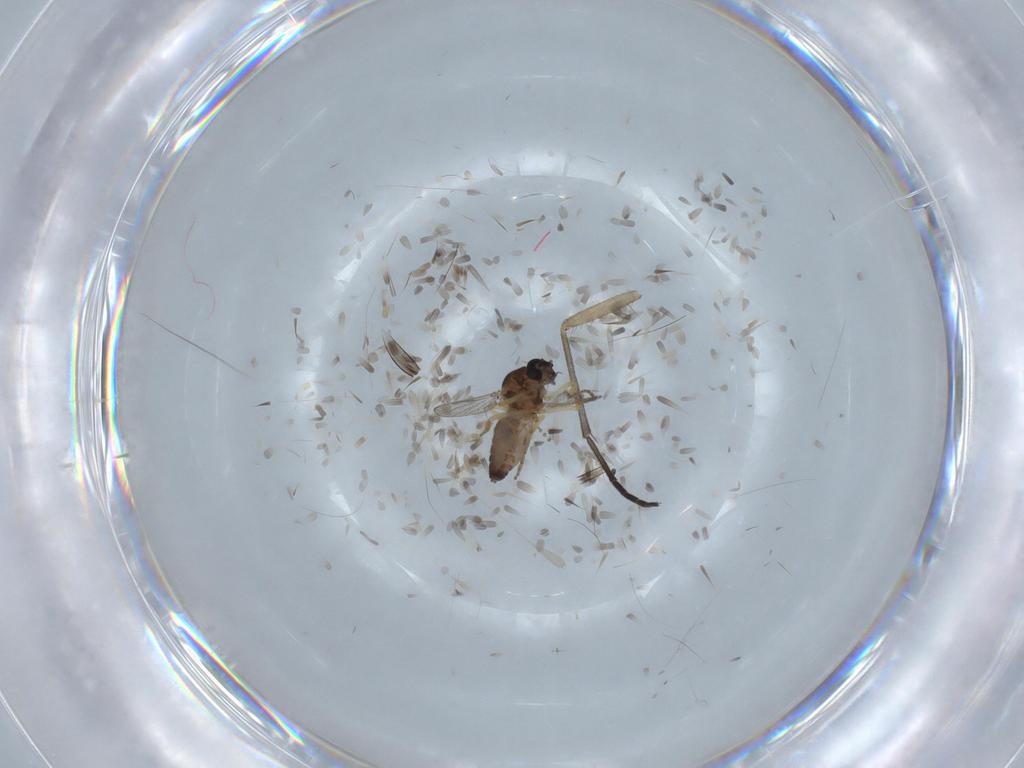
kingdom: Animalia
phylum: Arthropoda
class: Insecta
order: Diptera
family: Sciaridae
